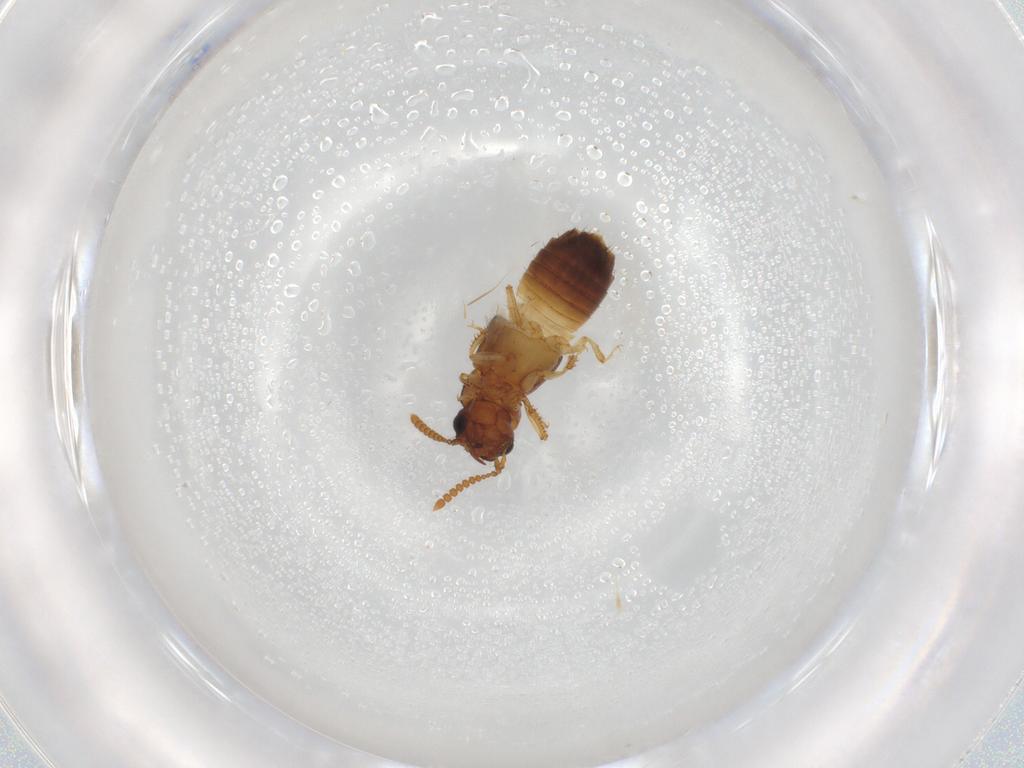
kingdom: Animalia
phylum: Arthropoda
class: Insecta
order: Coleoptera
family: Staphylinidae
